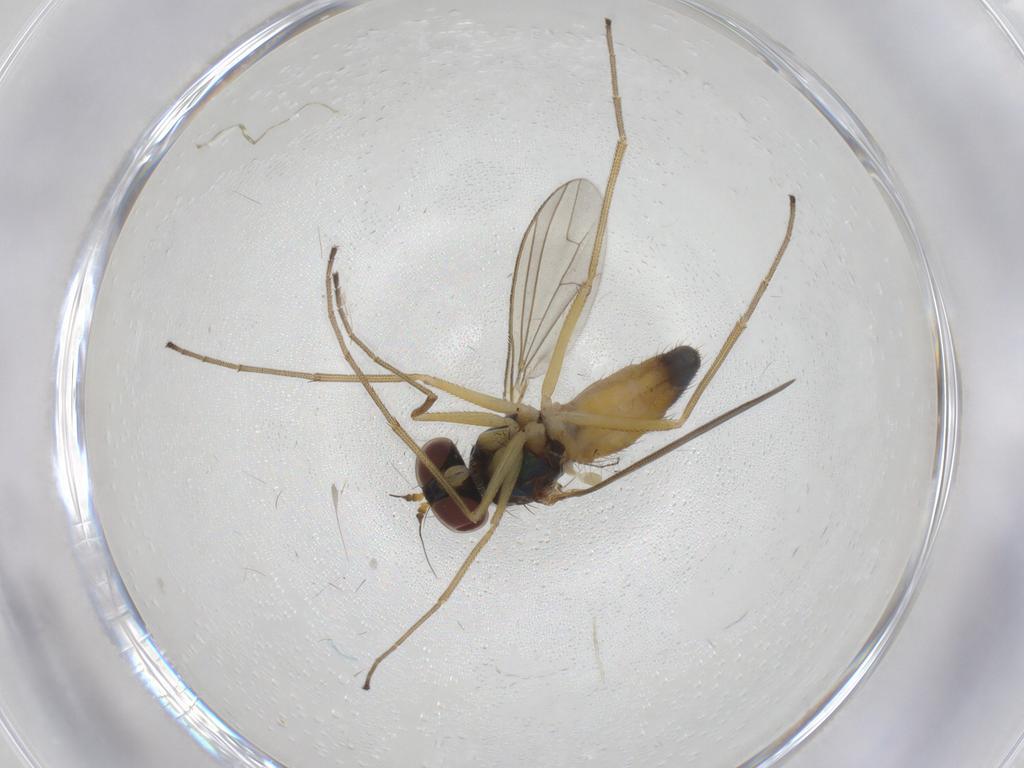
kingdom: Animalia
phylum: Arthropoda
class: Insecta
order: Diptera
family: Dolichopodidae
